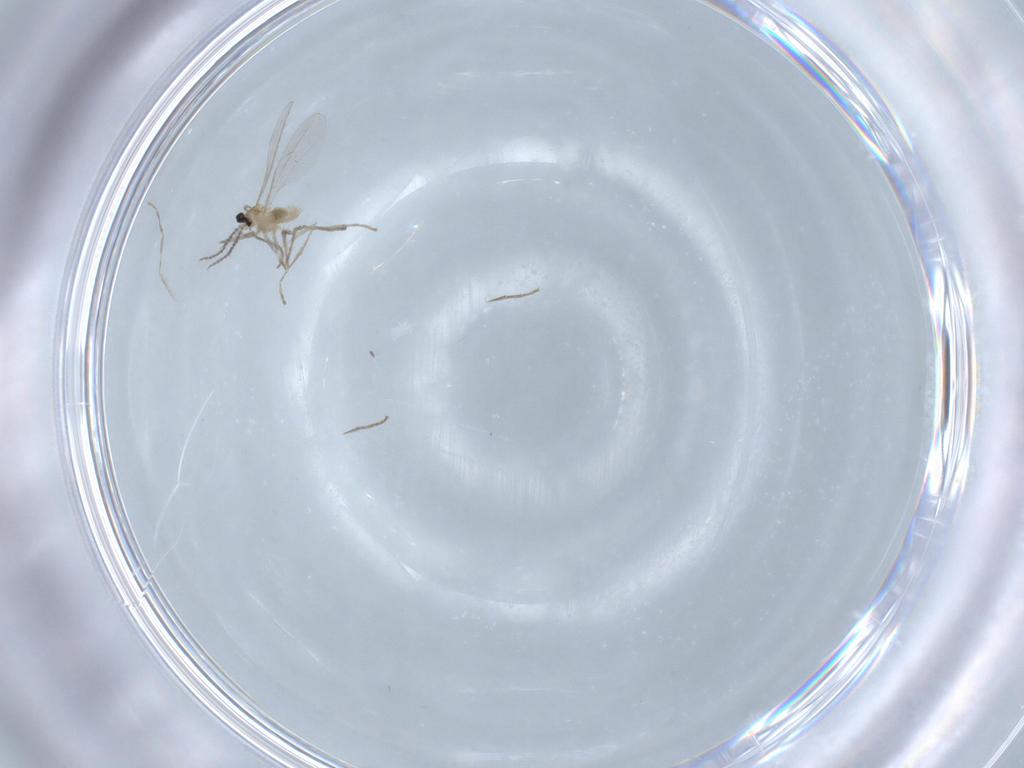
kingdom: Animalia
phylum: Arthropoda
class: Insecta
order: Diptera
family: Cecidomyiidae
